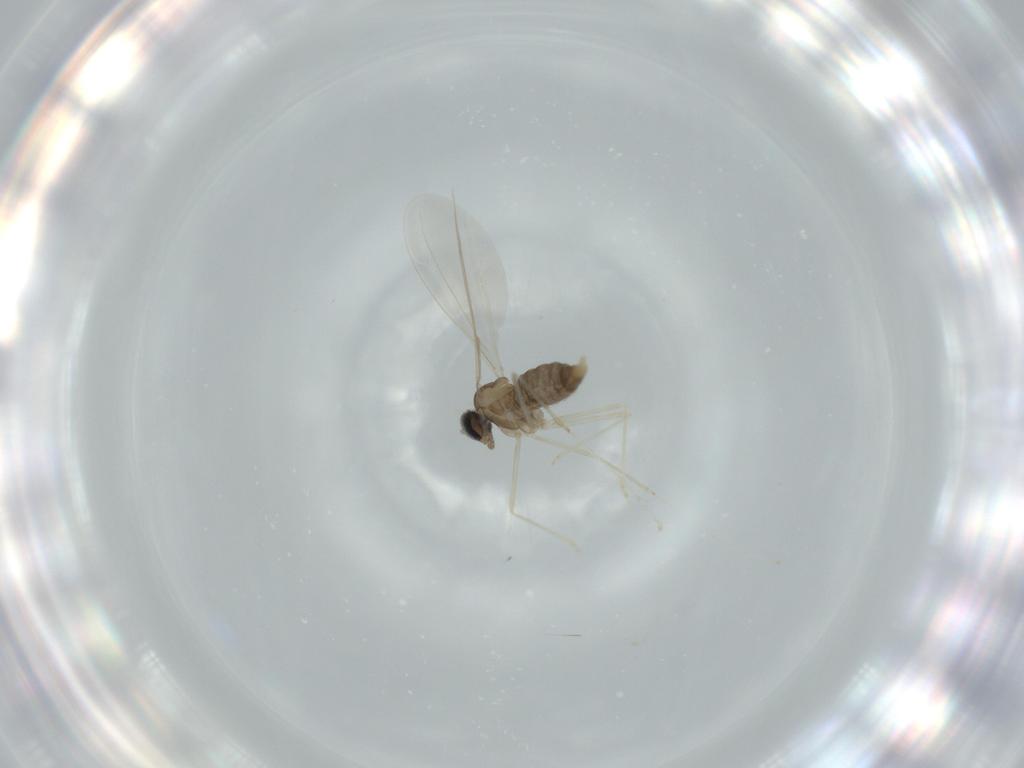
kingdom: Animalia
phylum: Arthropoda
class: Insecta
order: Diptera
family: Cecidomyiidae
